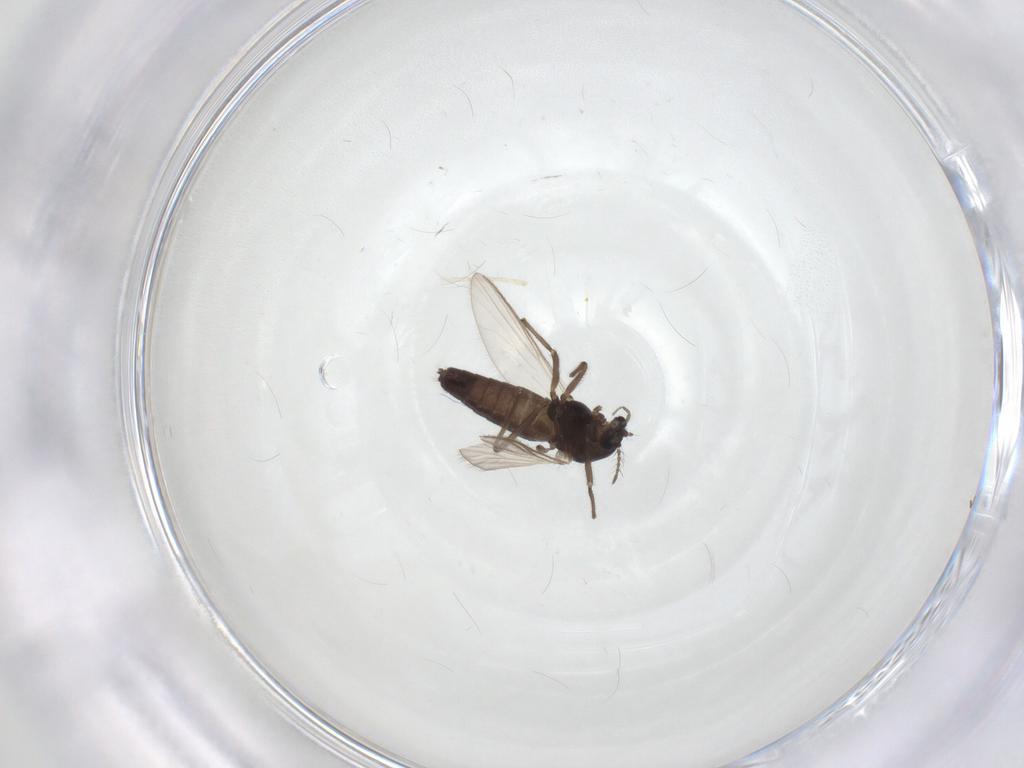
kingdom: Animalia
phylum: Arthropoda
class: Insecta
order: Diptera
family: Chironomidae
